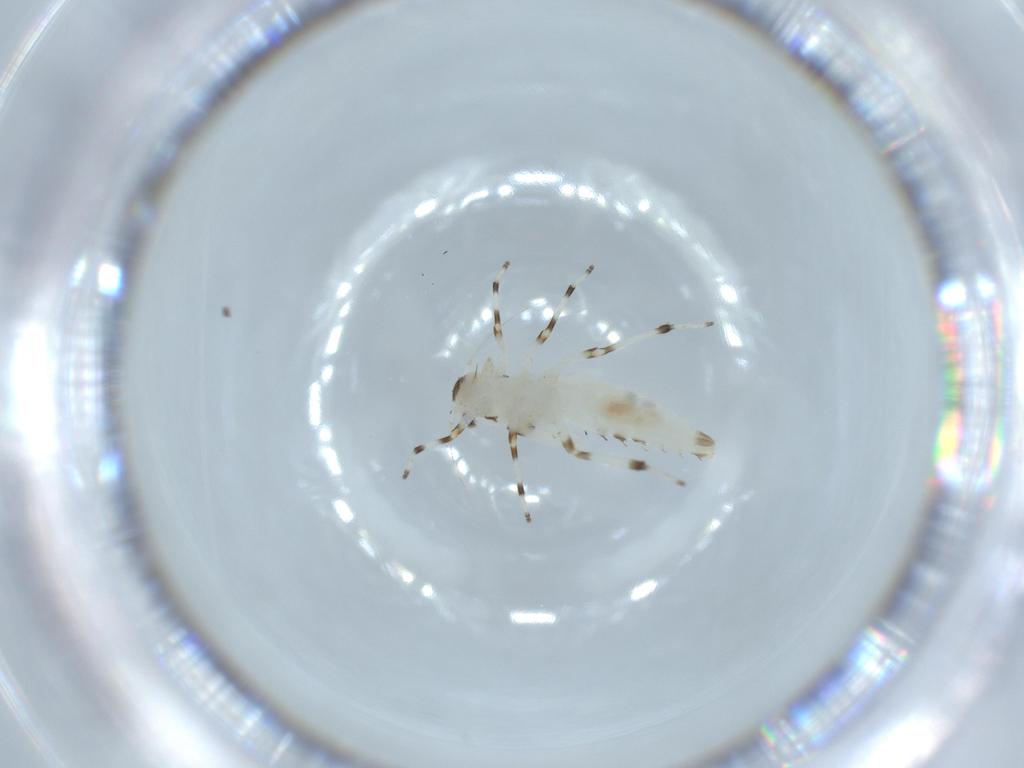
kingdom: Animalia
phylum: Arthropoda
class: Insecta
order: Hemiptera
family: Cicadellidae
